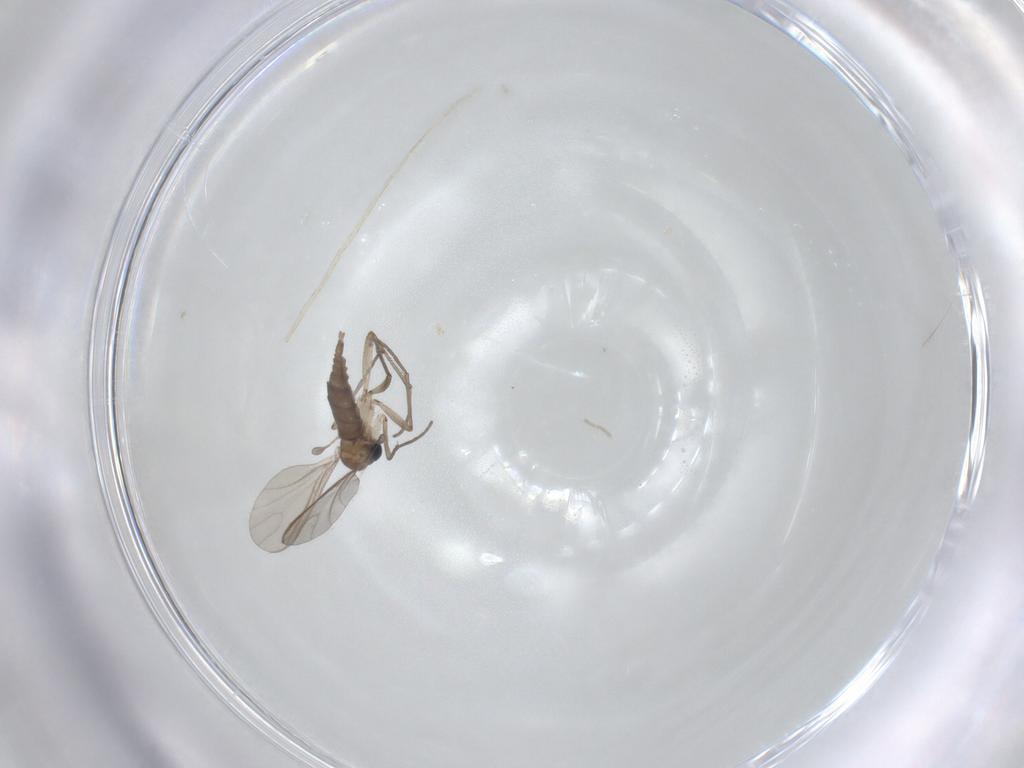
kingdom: Animalia
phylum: Arthropoda
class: Insecta
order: Diptera
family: Sciaridae
